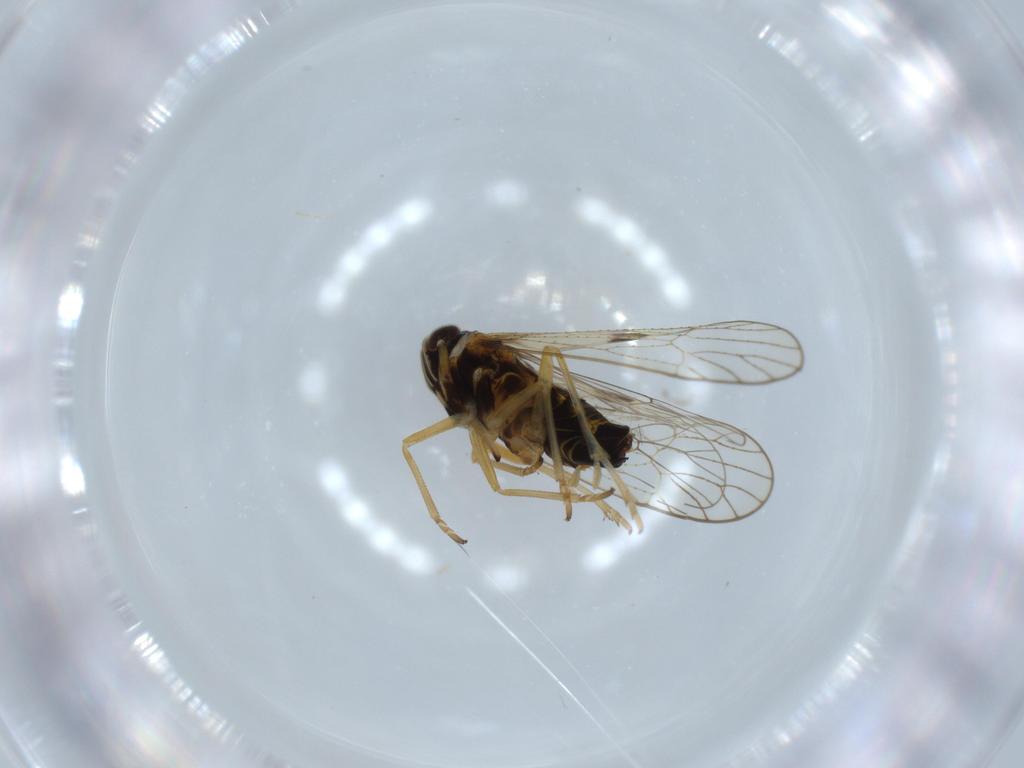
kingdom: Animalia
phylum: Arthropoda
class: Insecta
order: Hemiptera
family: Cicadellidae
